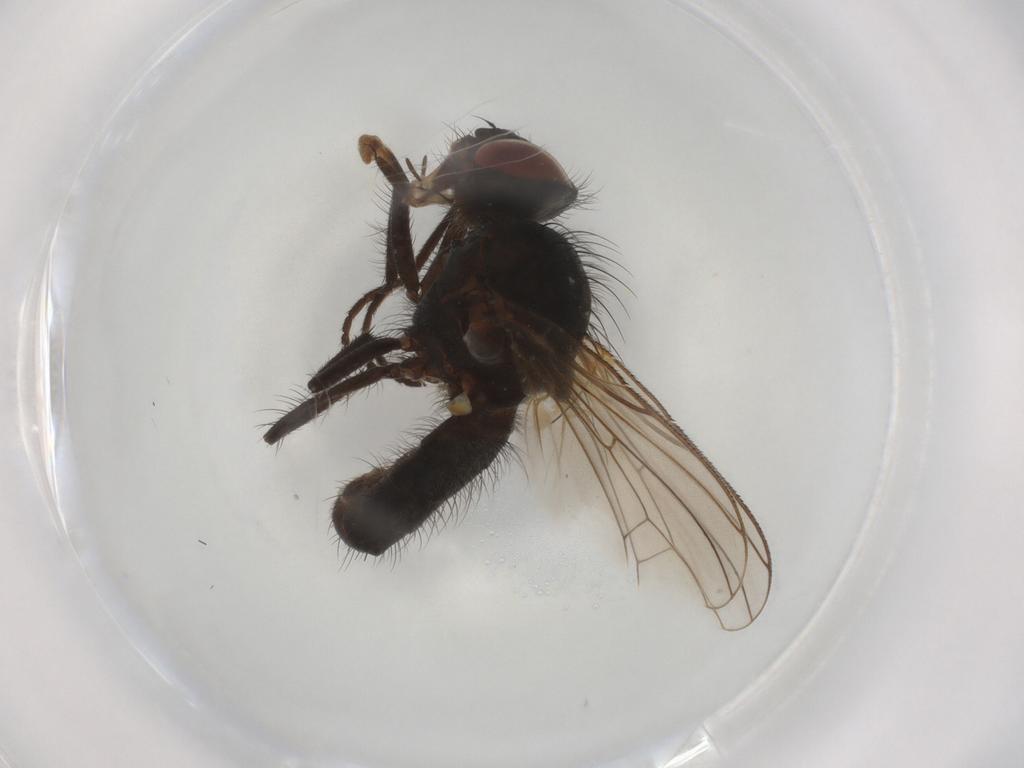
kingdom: Animalia
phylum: Arthropoda
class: Insecta
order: Diptera
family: Anthomyiidae
